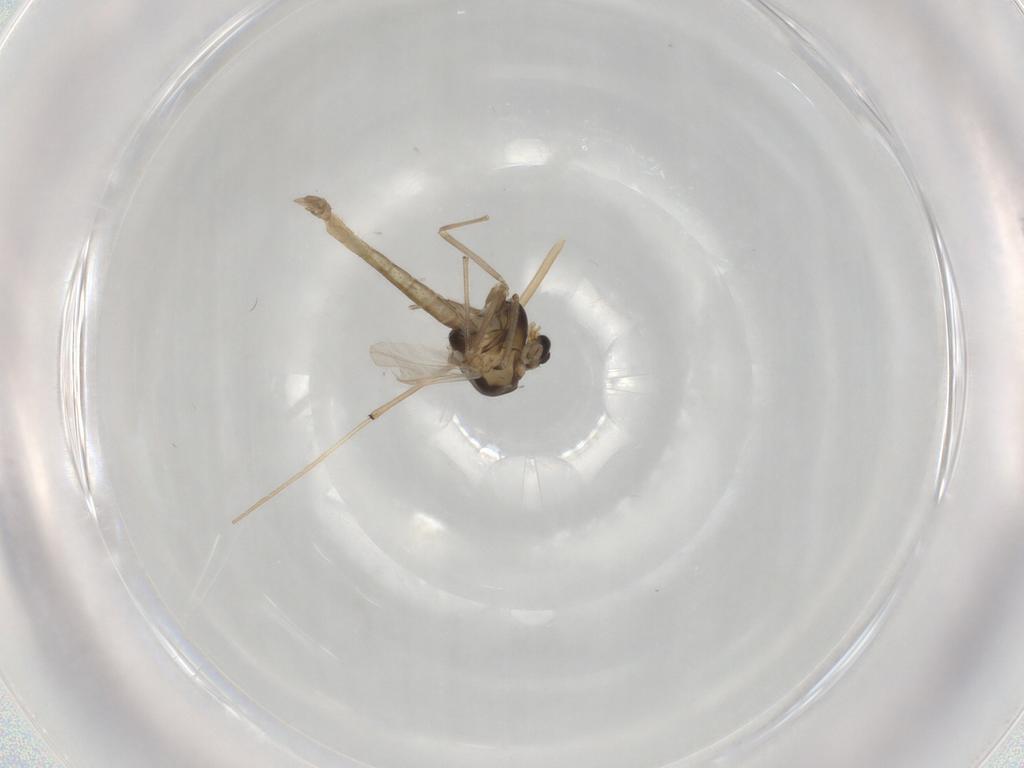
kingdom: Animalia
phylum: Arthropoda
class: Insecta
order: Diptera
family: Chironomidae
